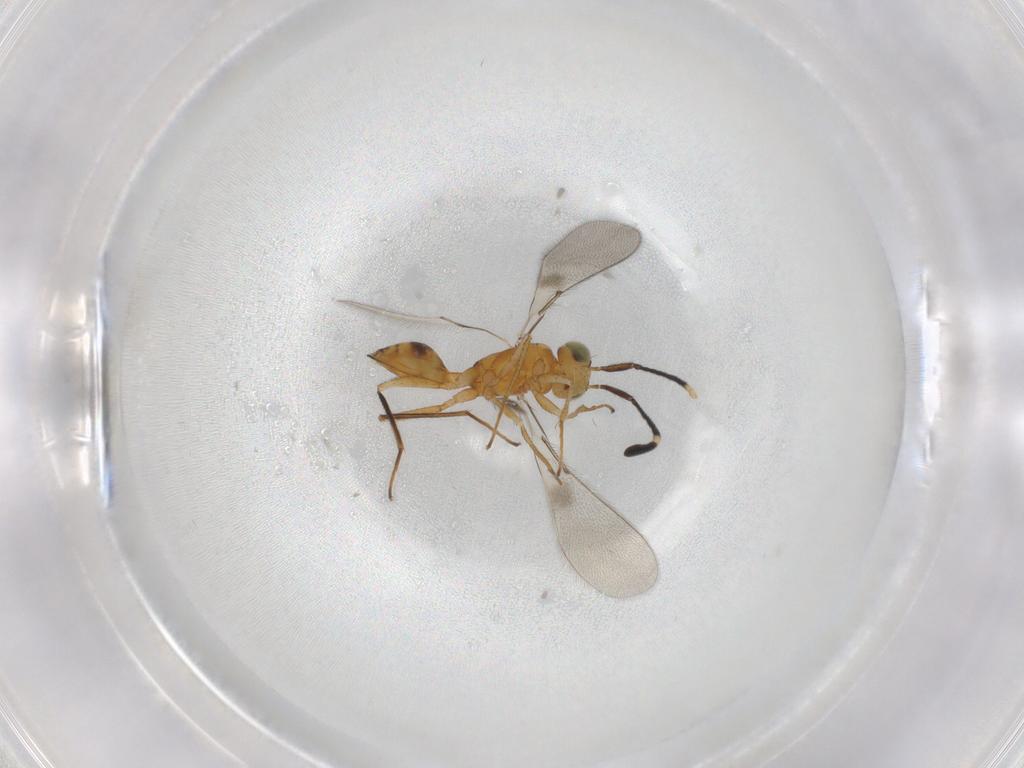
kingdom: Animalia
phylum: Arthropoda
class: Insecta
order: Hymenoptera
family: Mymaridae
